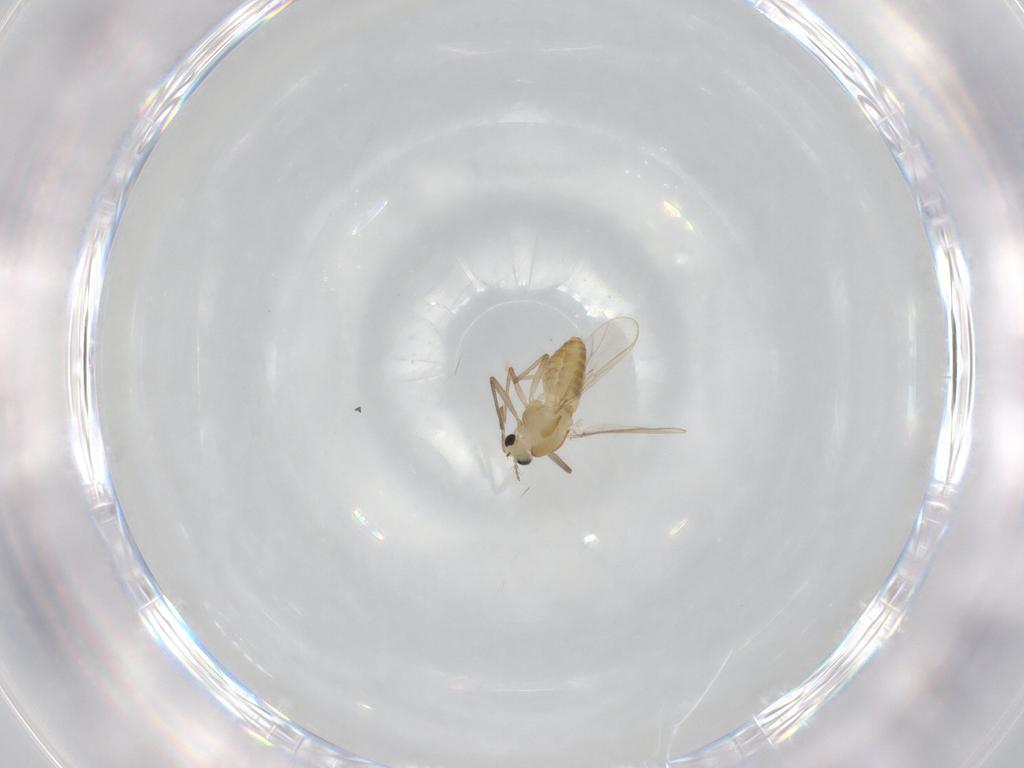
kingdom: Animalia
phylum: Arthropoda
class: Insecta
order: Diptera
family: Chironomidae
